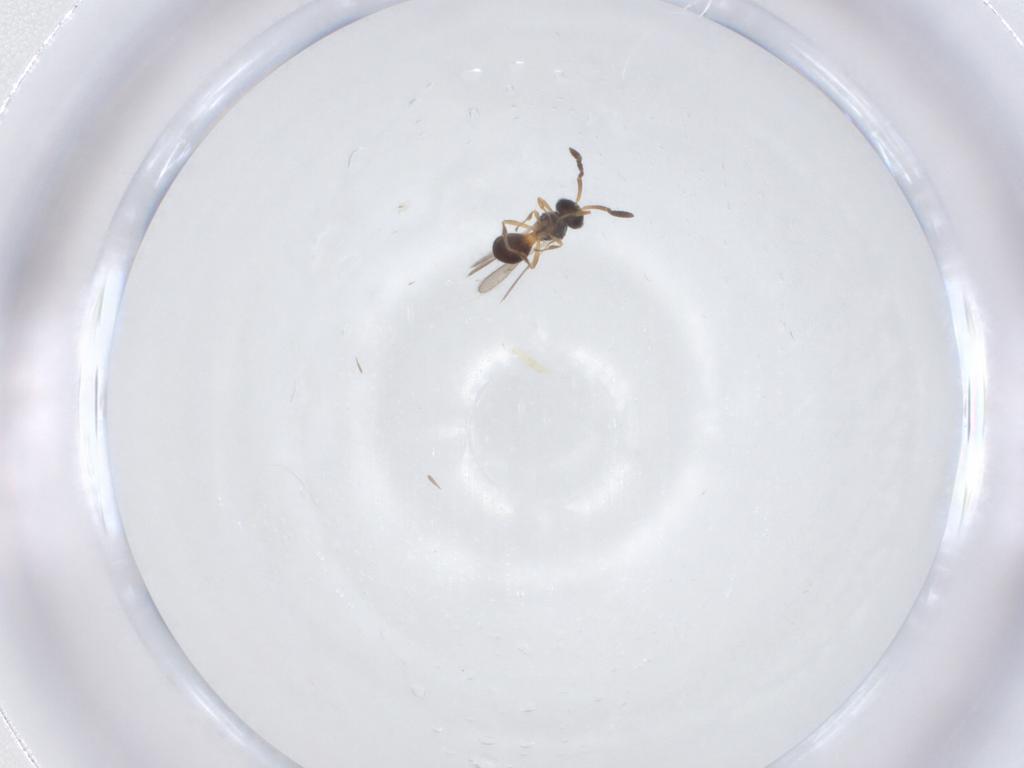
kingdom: Animalia
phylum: Arthropoda
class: Insecta
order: Hymenoptera
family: Scelionidae
